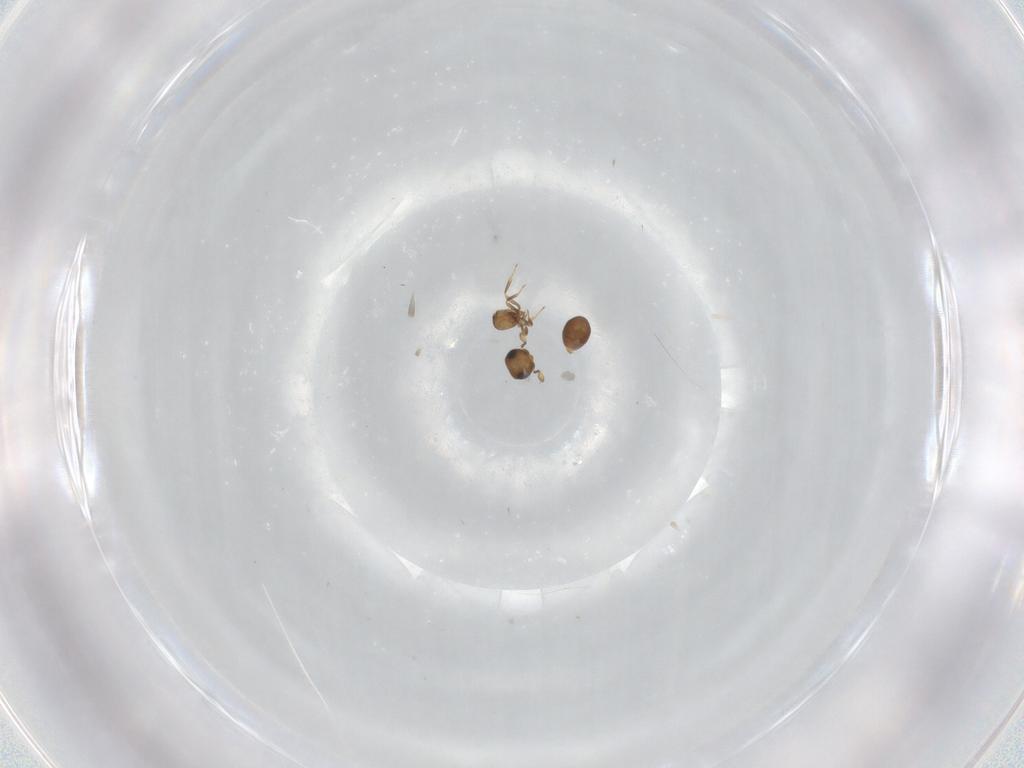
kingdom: Animalia
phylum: Arthropoda
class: Insecta
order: Hymenoptera
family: Scelionidae
